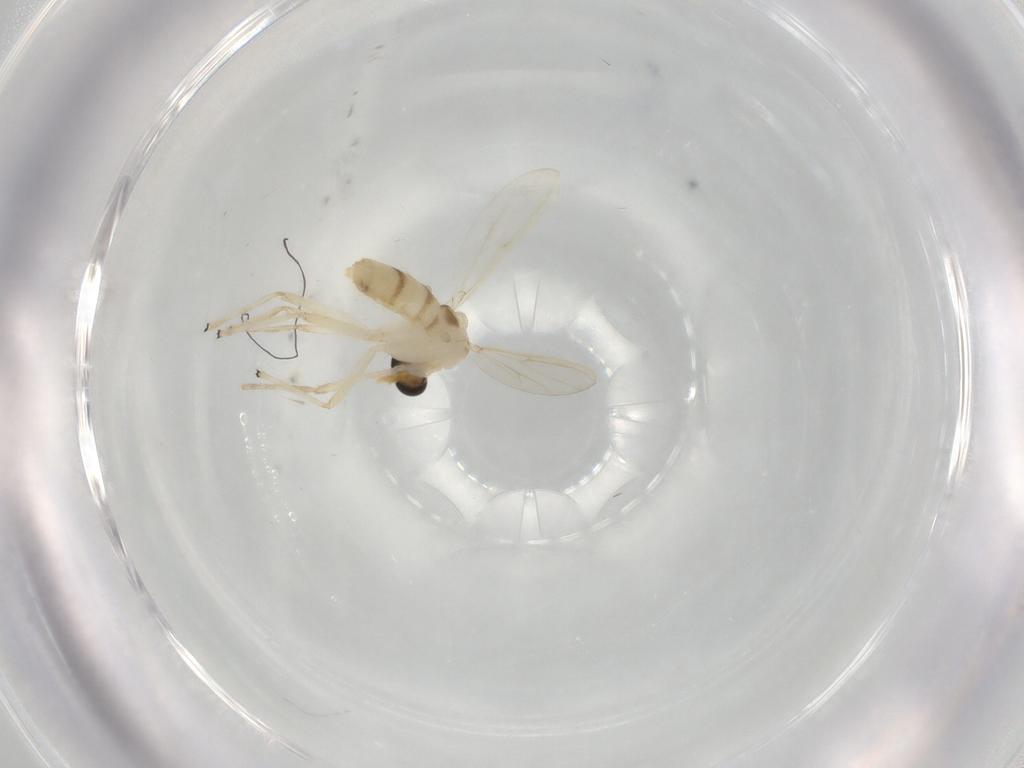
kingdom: Animalia
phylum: Arthropoda
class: Insecta
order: Diptera
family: Chironomidae
